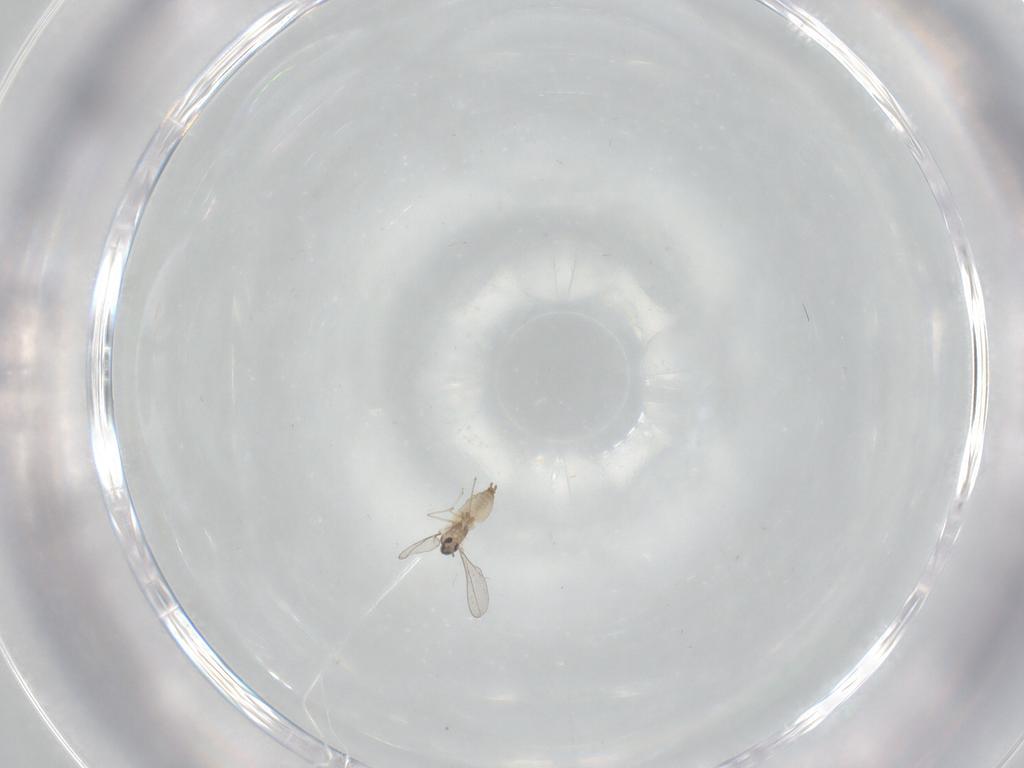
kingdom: Animalia
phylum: Arthropoda
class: Insecta
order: Diptera
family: Cecidomyiidae
